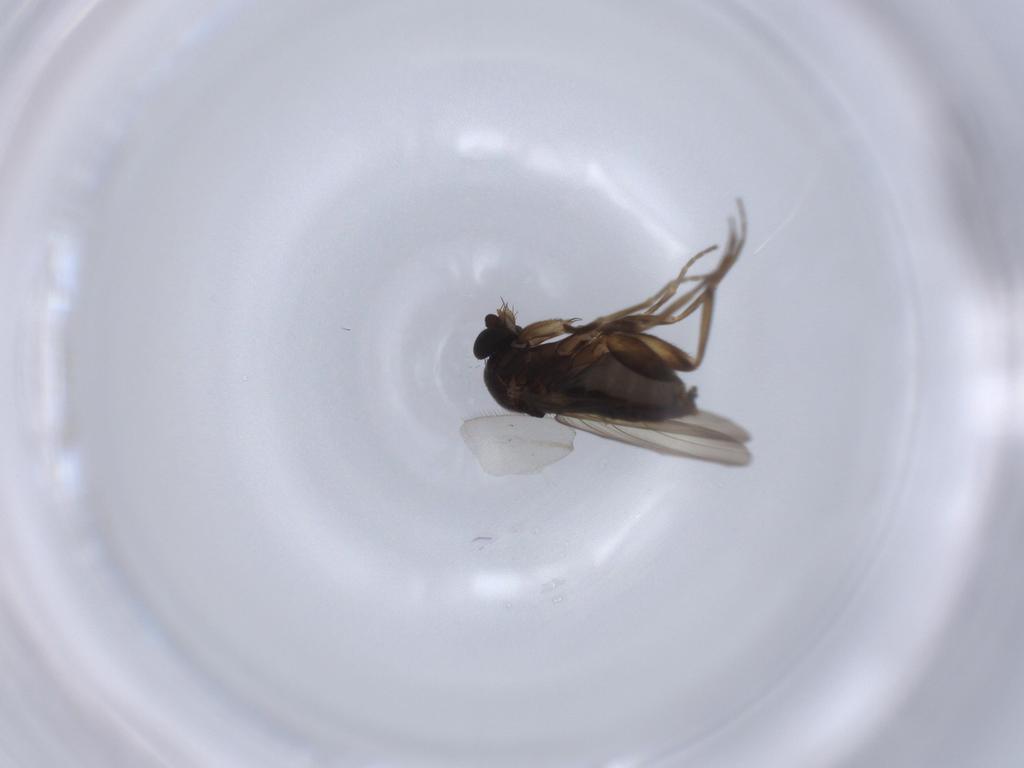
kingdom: Animalia
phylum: Arthropoda
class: Insecta
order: Diptera
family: Phoridae
